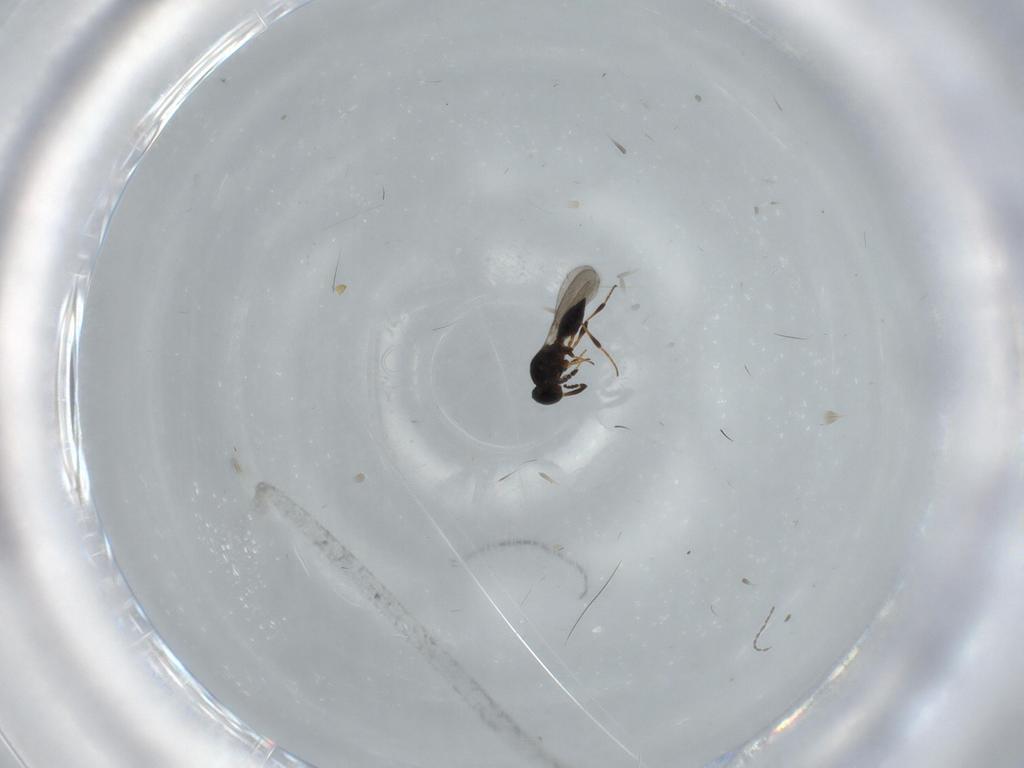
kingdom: Animalia
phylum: Arthropoda
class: Insecta
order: Hymenoptera
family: Platygastridae
